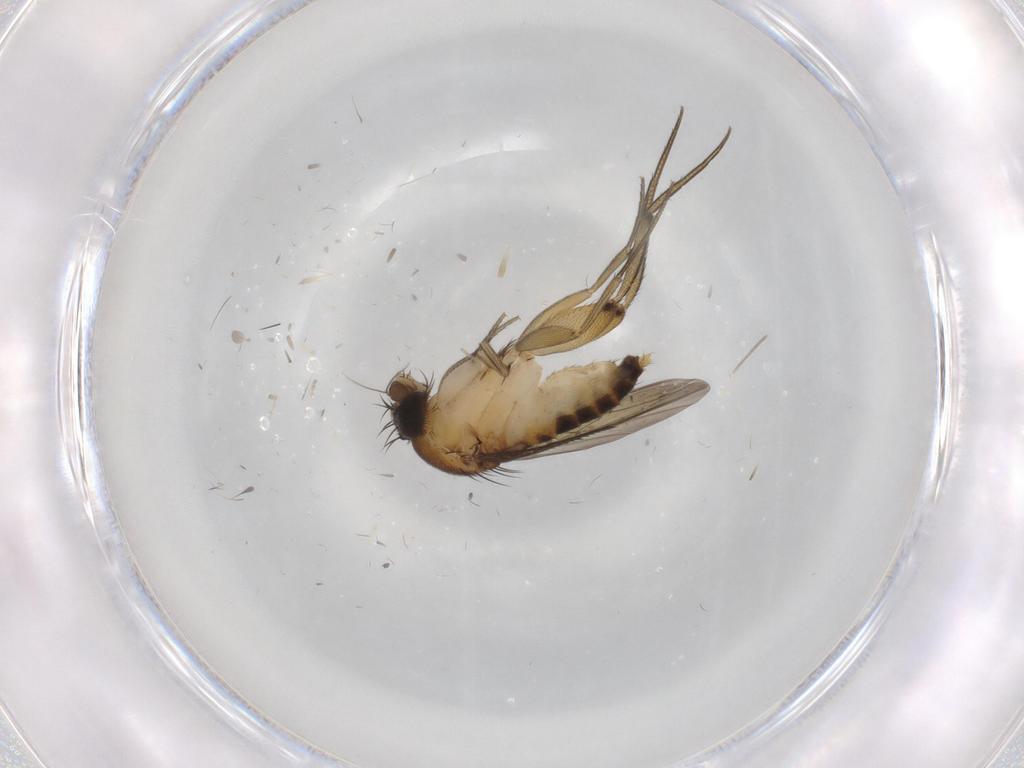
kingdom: Animalia
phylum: Arthropoda
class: Insecta
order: Diptera
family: Phoridae
